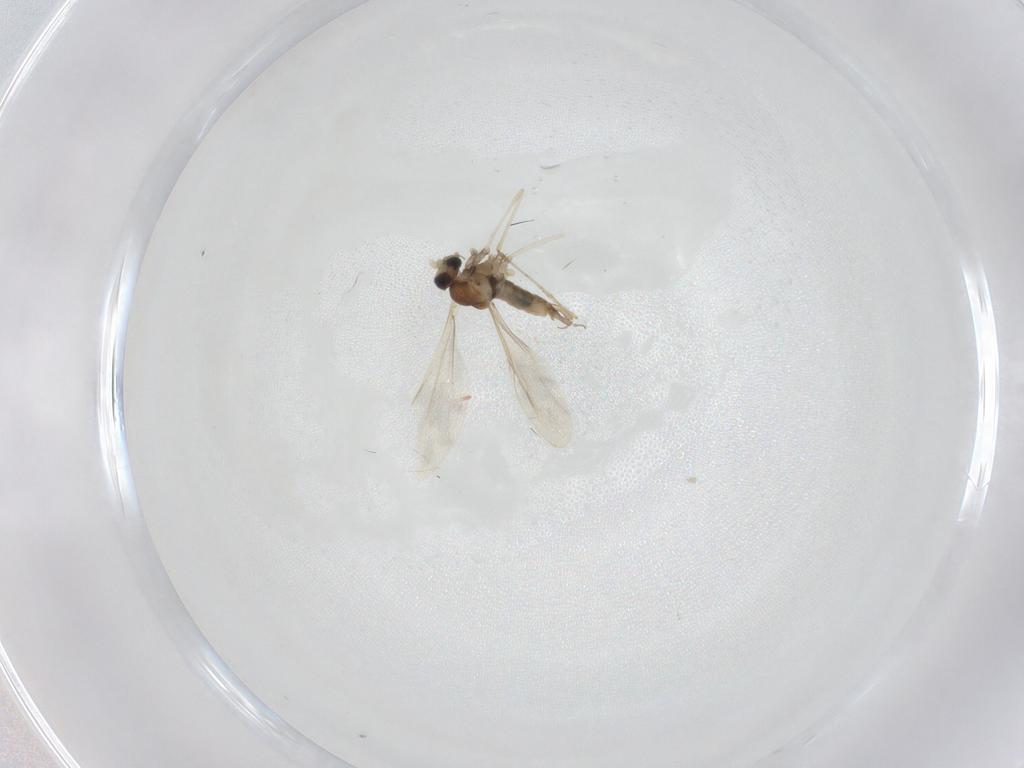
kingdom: Animalia
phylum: Arthropoda
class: Insecta
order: Diptera
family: Cecidomyiidae
